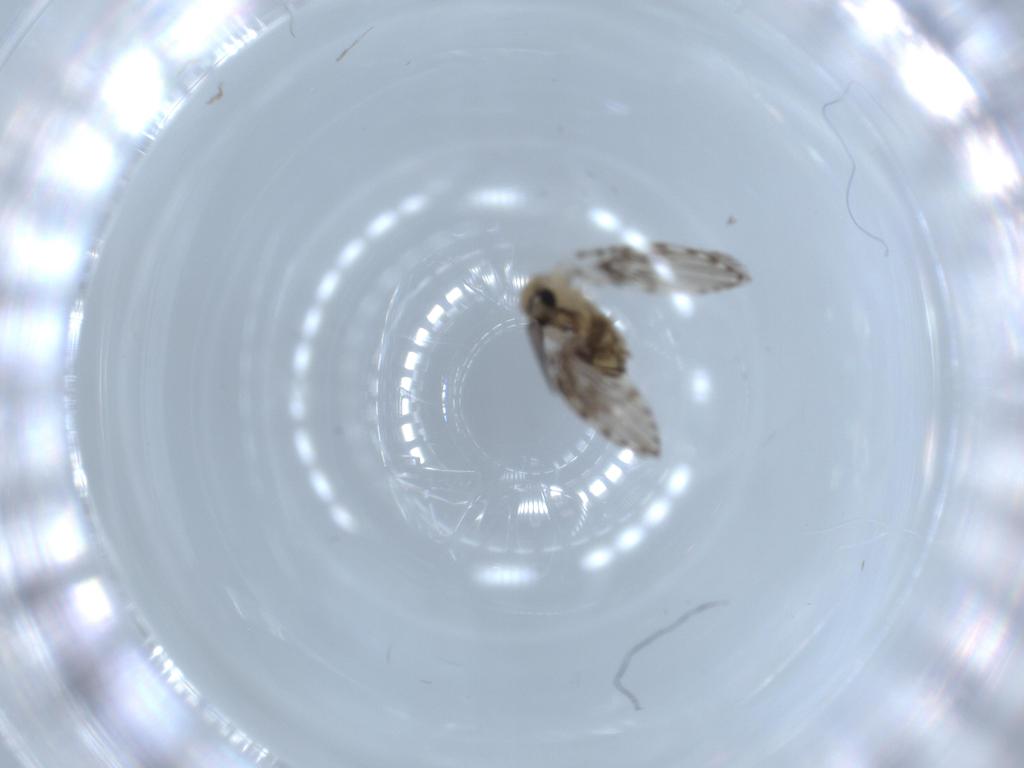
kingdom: Animalia
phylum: Arthropoda
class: Insecta
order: Diptera
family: Psychodidae
